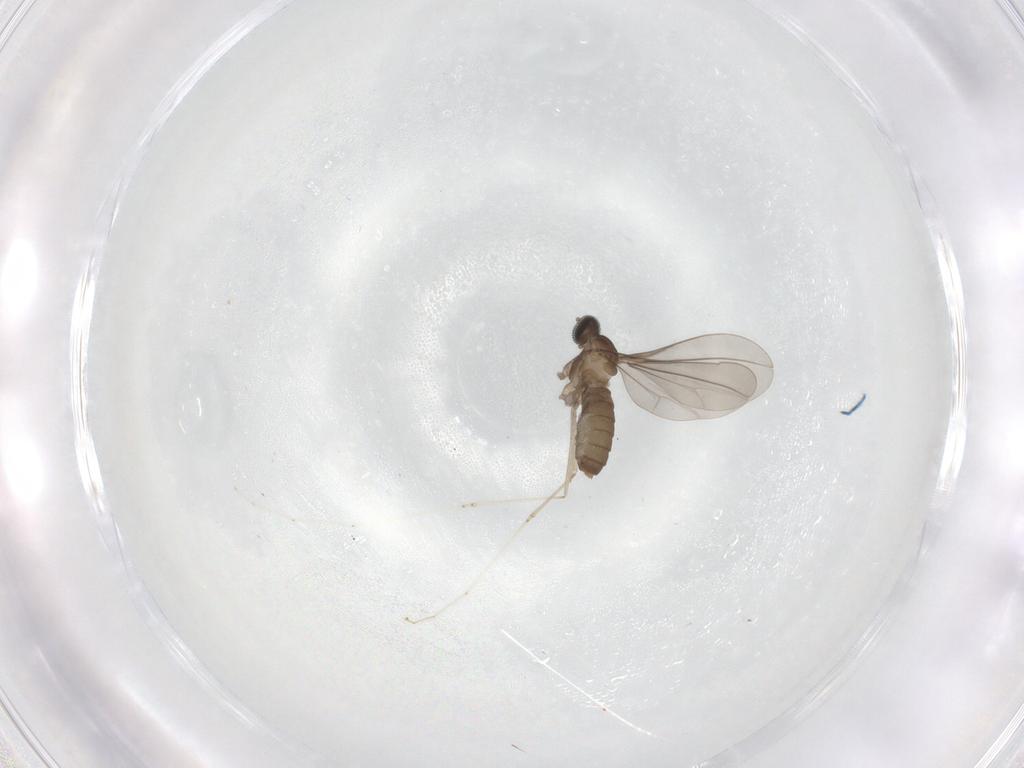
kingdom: Animalia
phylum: Arthropoda
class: Insecta
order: Diptera
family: Cecidomyiidae
